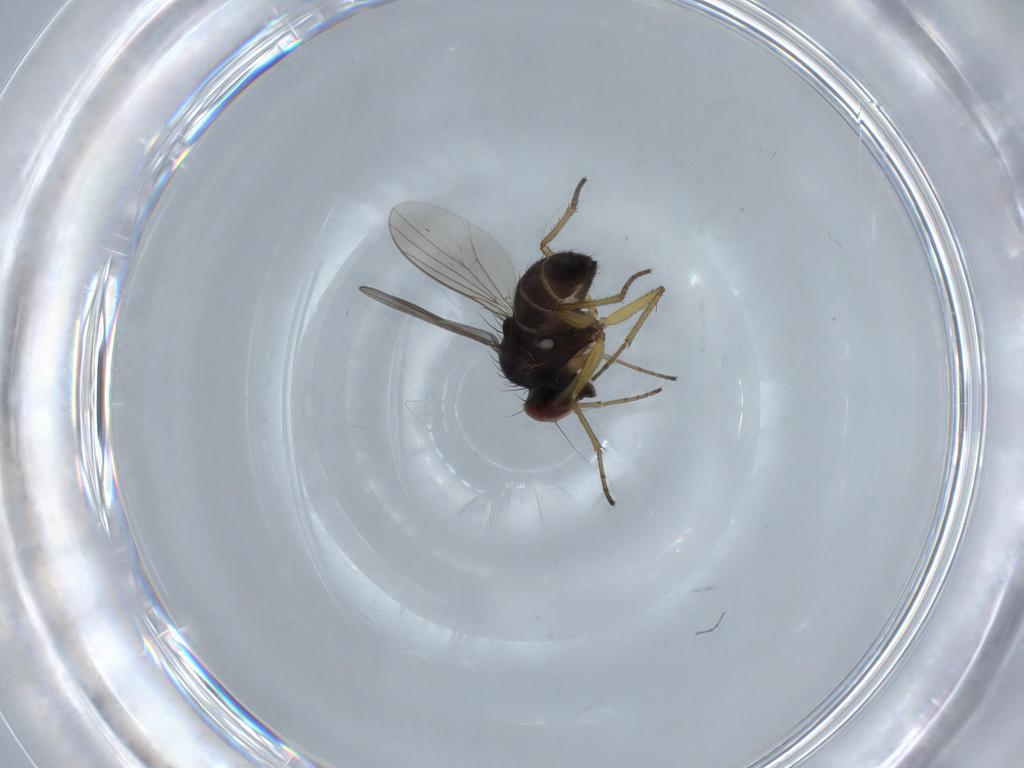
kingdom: Animalia
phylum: Arthropoda
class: Insecta
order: Diptera
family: Dolichopodidae
